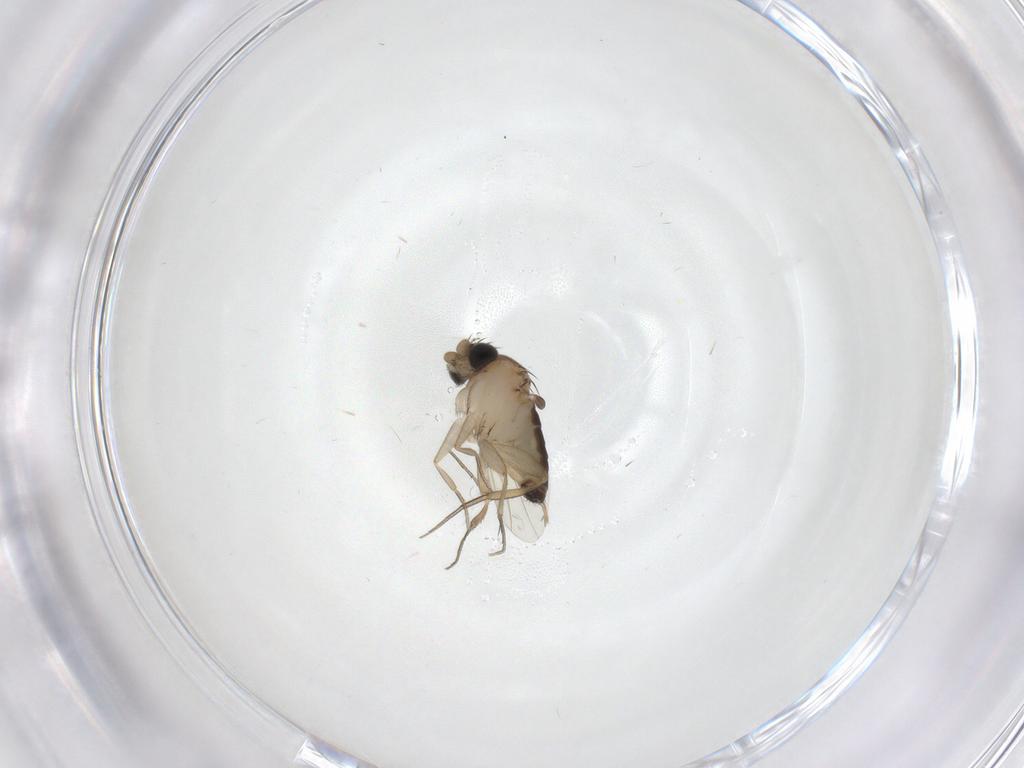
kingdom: Animalia
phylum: Arthropoda
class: Insecta
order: Diptera
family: Phoridae
